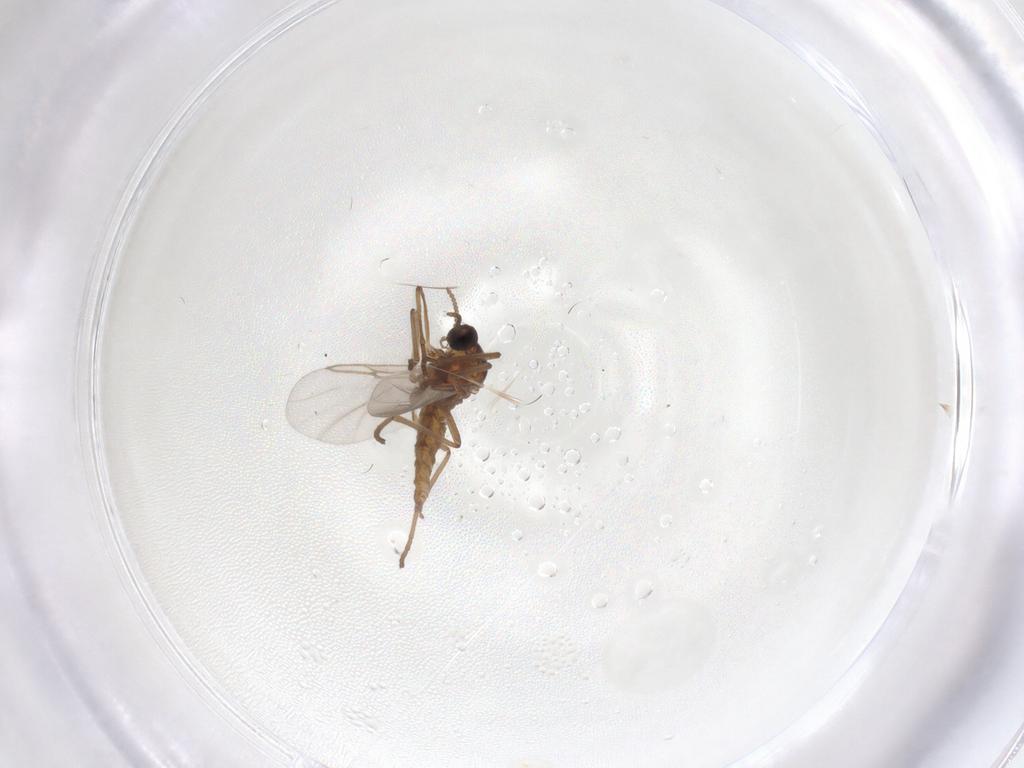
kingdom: Animalia
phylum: Arthropoda
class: Insecta
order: Diptera
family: Cecidomyiidae
